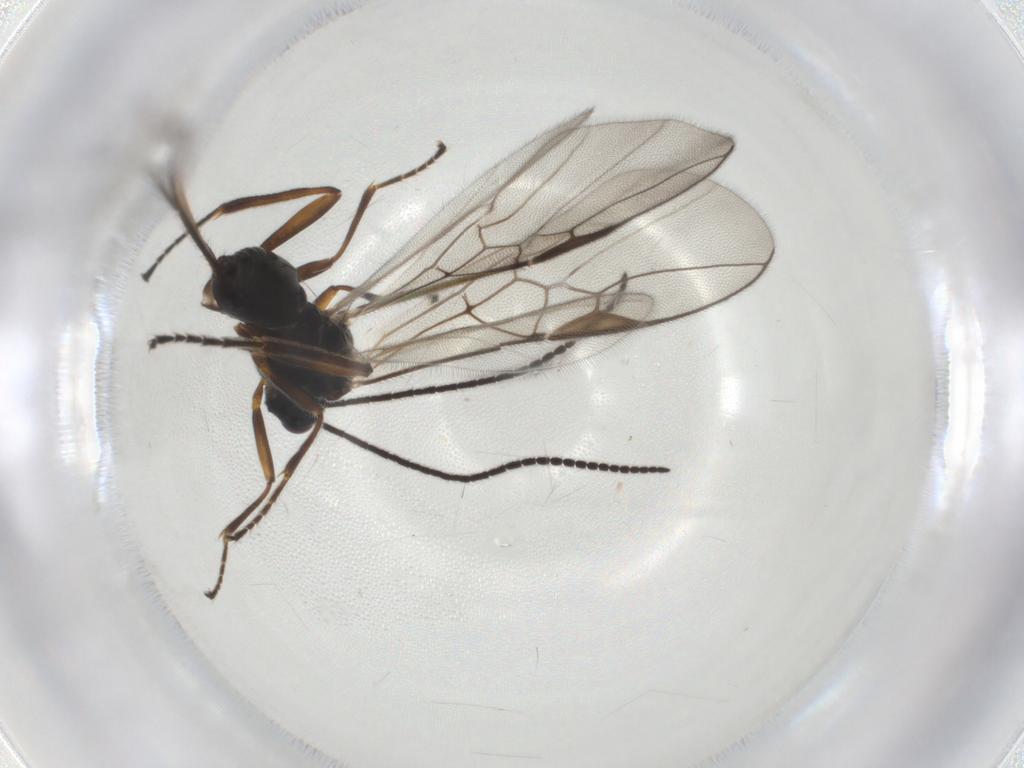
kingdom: Animalia
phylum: Arthropoda
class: Insecta
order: Hymenoptera
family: Braconidae
